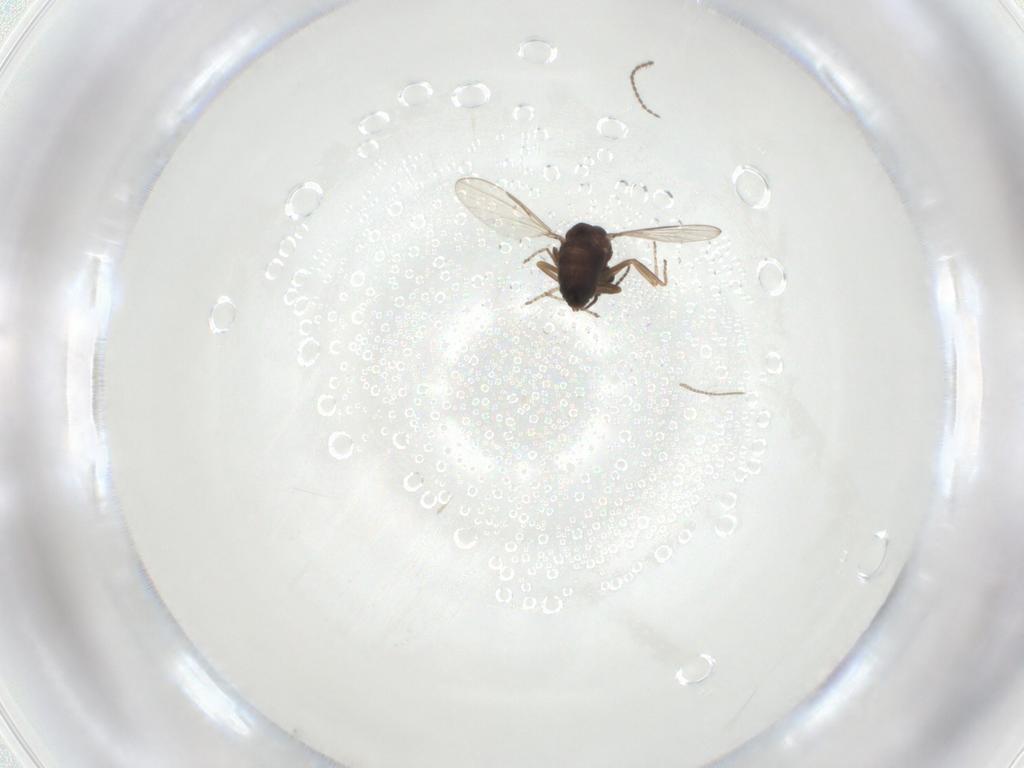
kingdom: Animalia
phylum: Arthropoda
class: Insecta
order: Diptera
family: Ceratopogonidae
